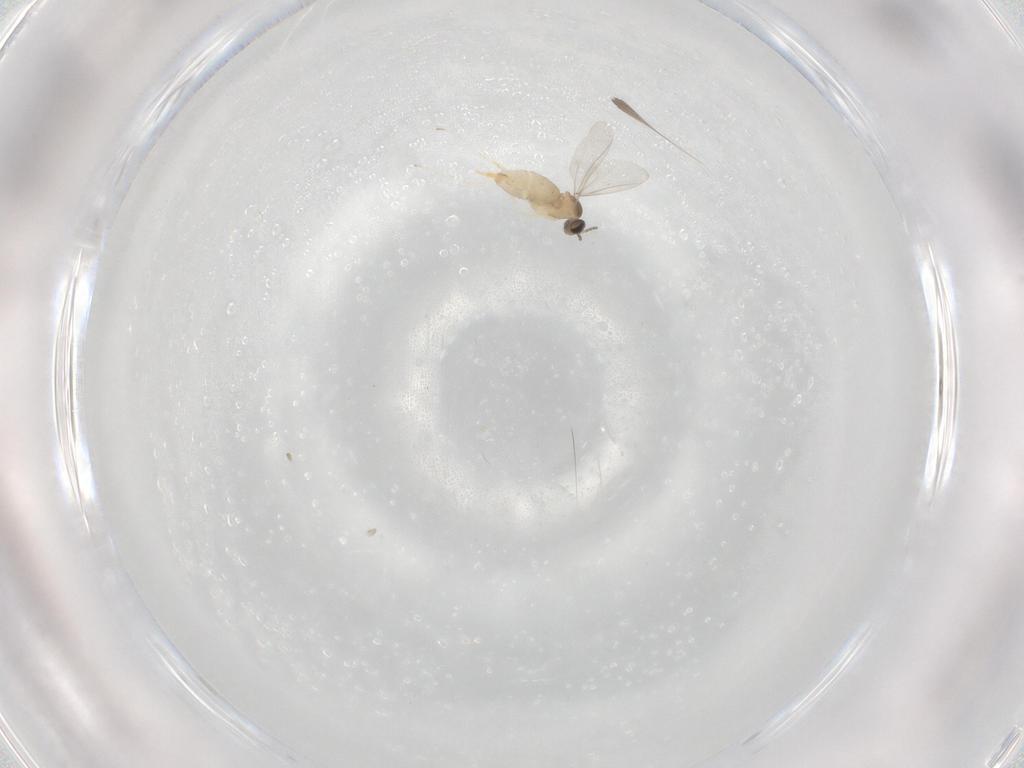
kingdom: Animalia
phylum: Arthropoda
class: Insecta
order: Diptera
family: Cecidomyiidae
